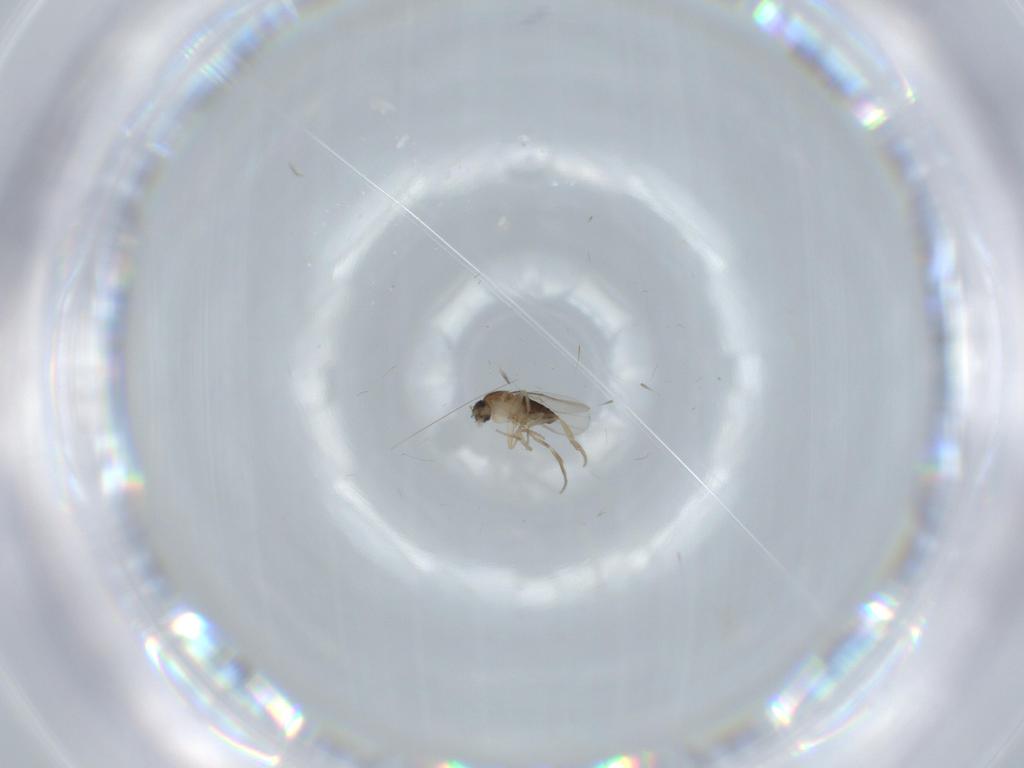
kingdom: Animalia
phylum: Arthropoda
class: Insecta
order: Diptera
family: Phoridae
